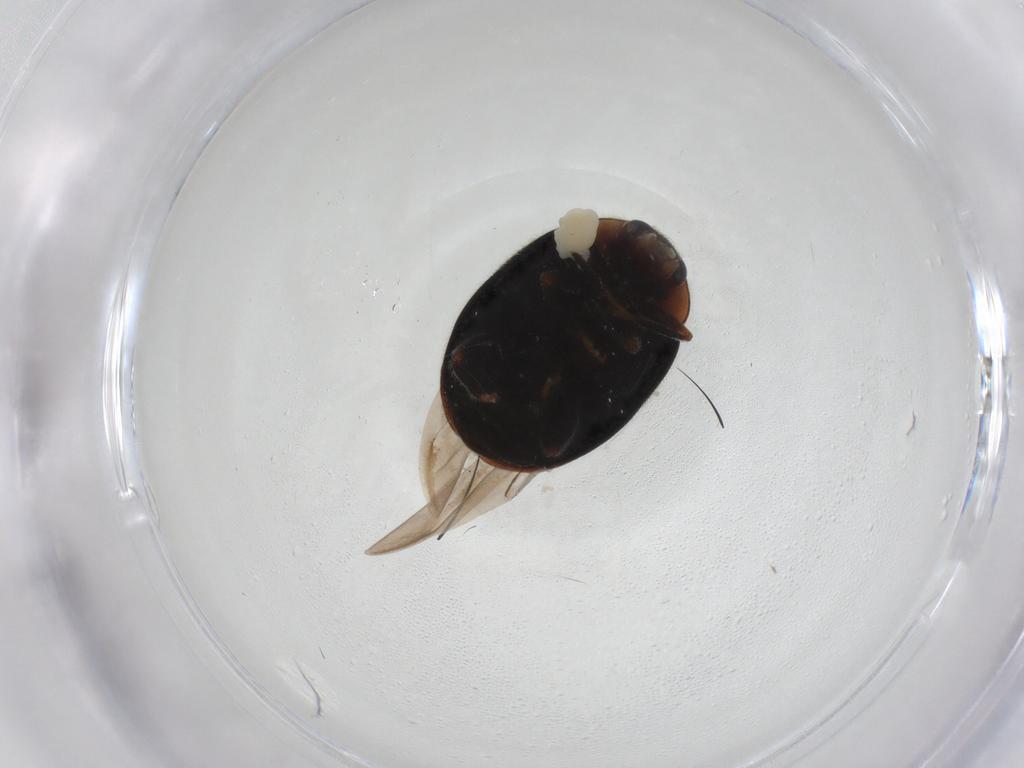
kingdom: Animalia
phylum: Arthropoda
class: Insecta
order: Coleoptera
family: Coccinellidae
